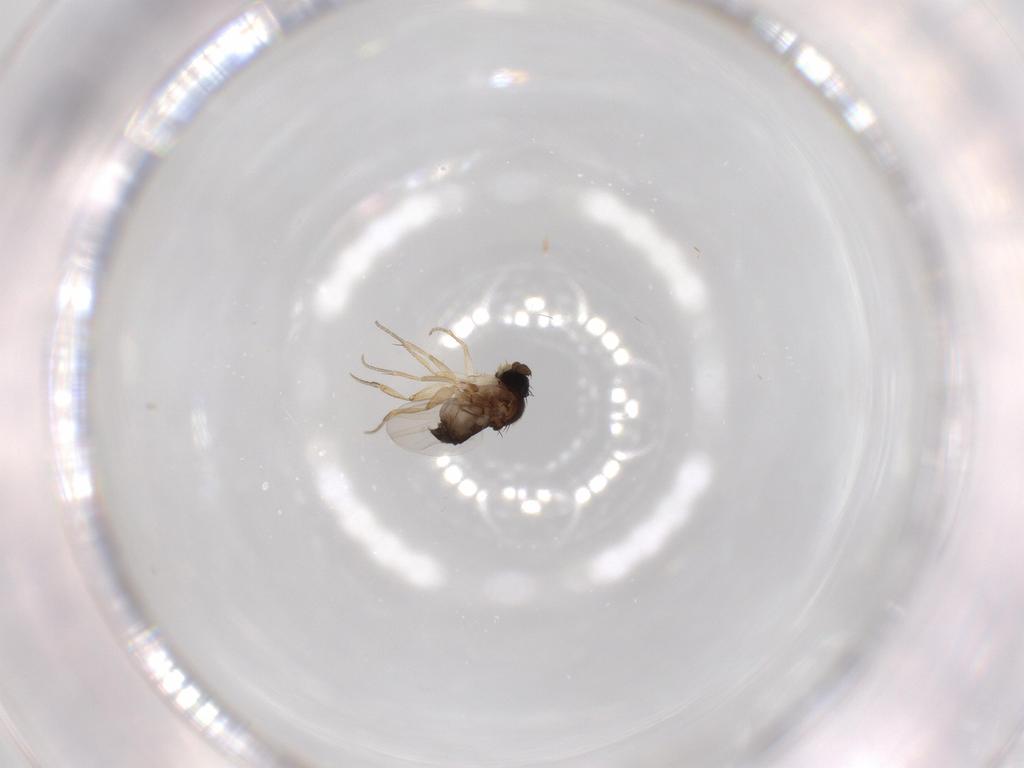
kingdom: Animalia
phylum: Arthropoda
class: Insecta
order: Diptera
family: Phoridae
